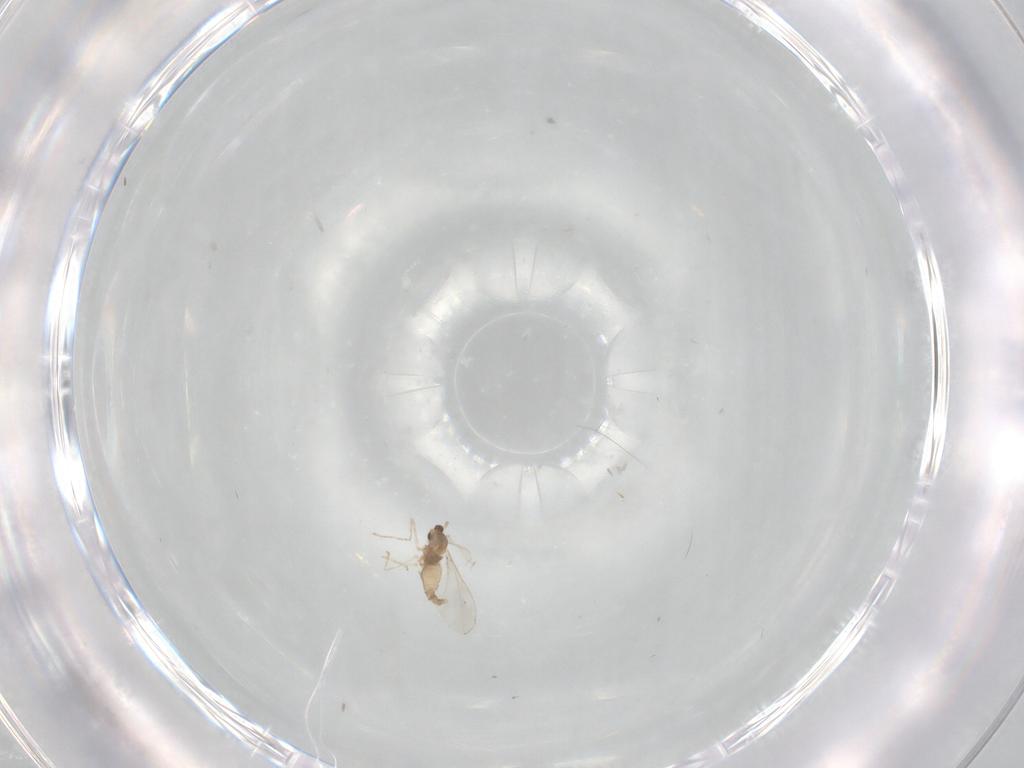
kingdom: Animalia
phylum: Arthropoda
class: Insecta
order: Diptera
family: Cecidomyiidae
